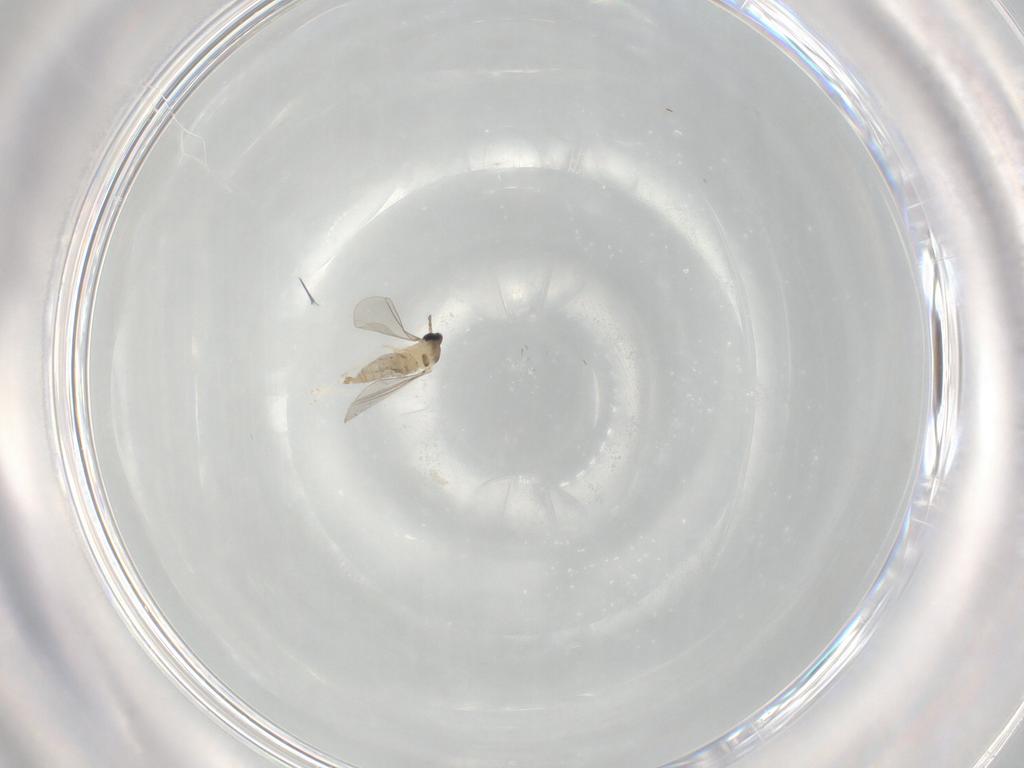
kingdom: Animalia
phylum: Arthropoda
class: Insecta
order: Diptera
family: Cecidomyiidae
